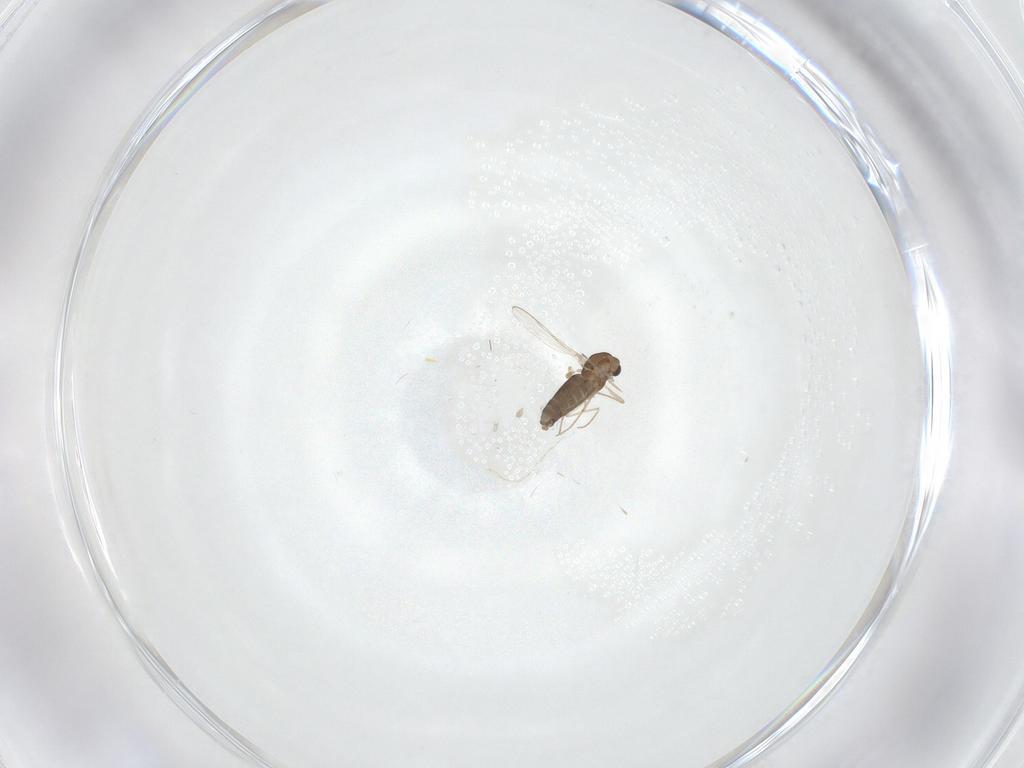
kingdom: Animalia
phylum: Arthropoda
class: Insecta
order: Diptera
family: Chironomidae
